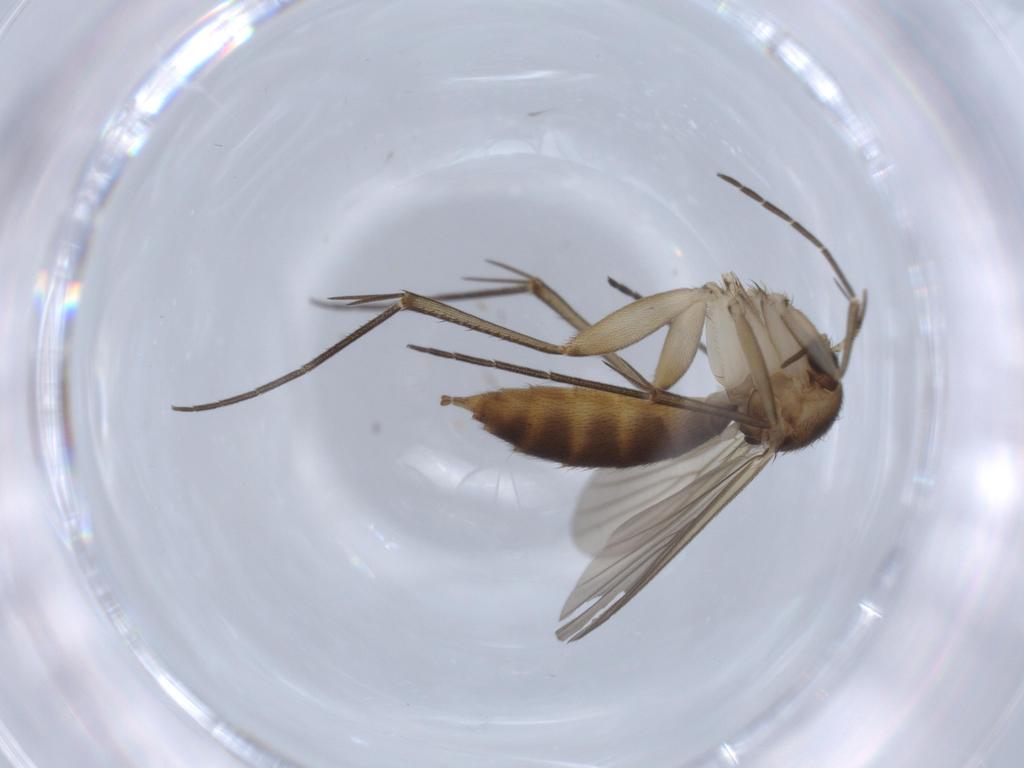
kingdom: Animalia
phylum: Arthropoda
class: Insecta
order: Diptera
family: Mycetophilidae
